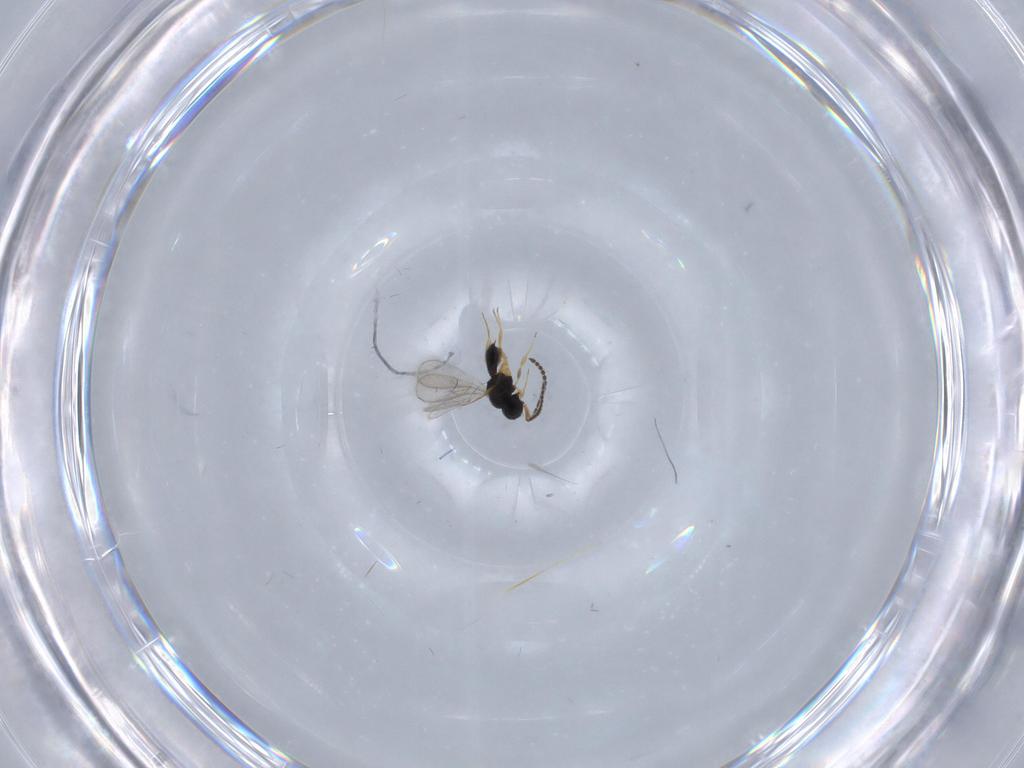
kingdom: Animalia
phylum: Arthropoda
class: Insecta
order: Hymenoptera
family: Scelionidae
